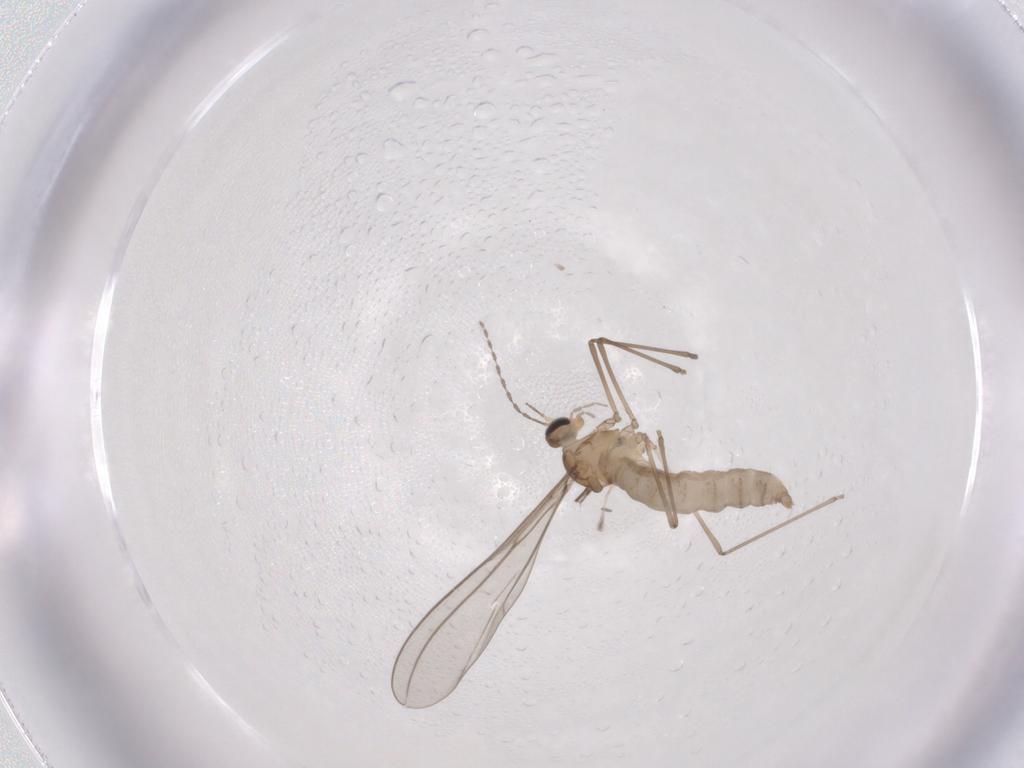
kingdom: Animalia
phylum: Arthropoda
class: Insecta
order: Diptera
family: Cecidomyiidae
